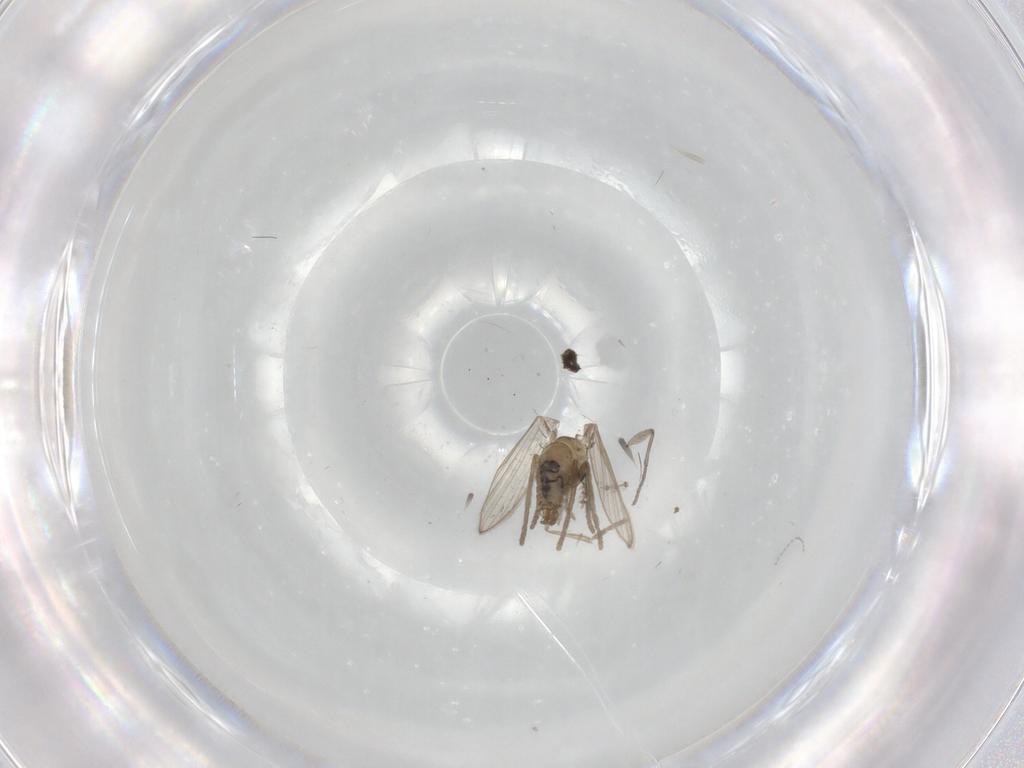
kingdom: Animalia
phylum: Arthropoda
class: Insecta
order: Diptera
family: Psychodidae
